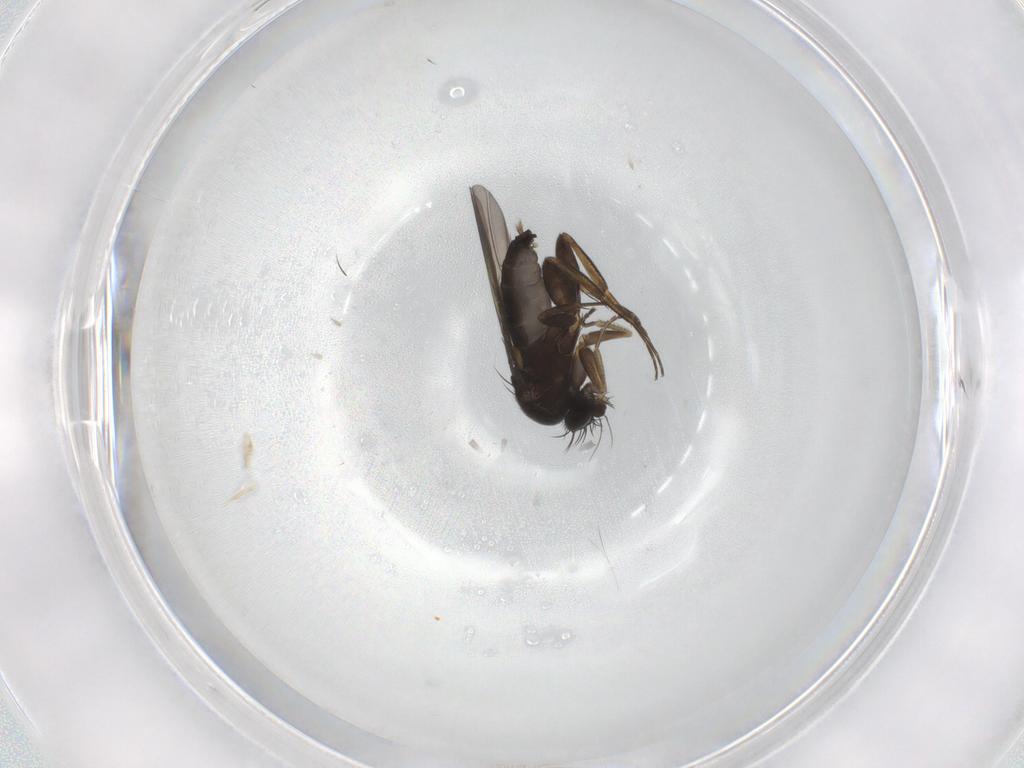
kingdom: Animalia
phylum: Arthropoda
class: Insecta
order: Diptera
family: Phoridae
